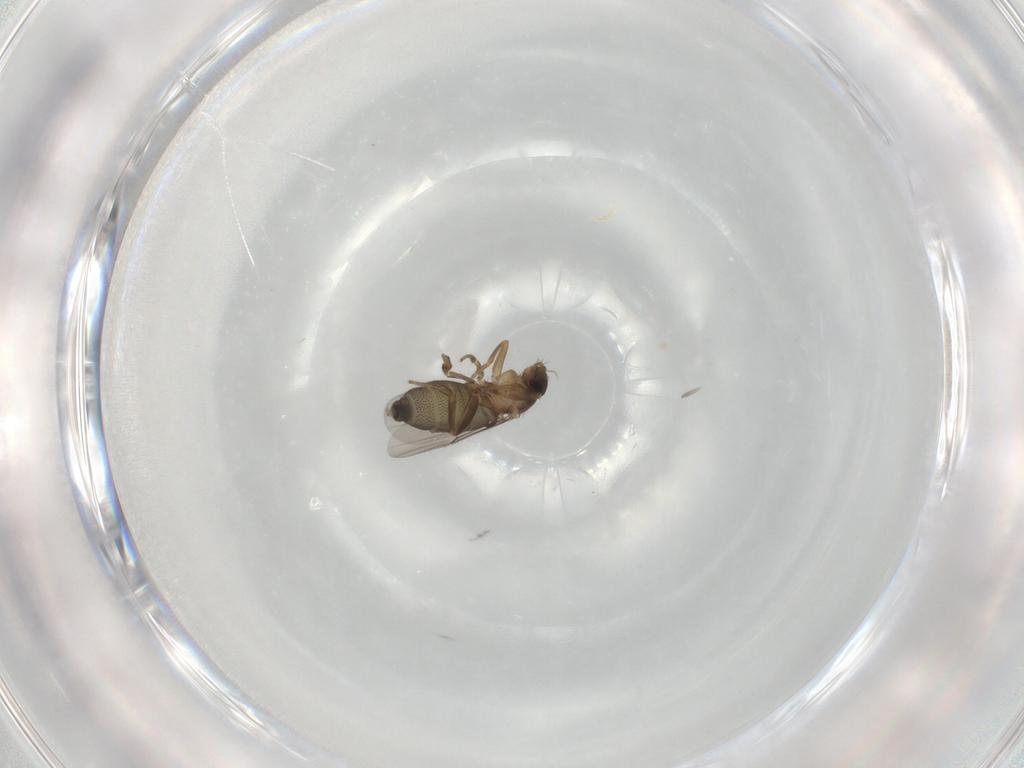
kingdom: Animalia
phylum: Arthropoda
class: Insecta
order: Diptera
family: Phoridae
